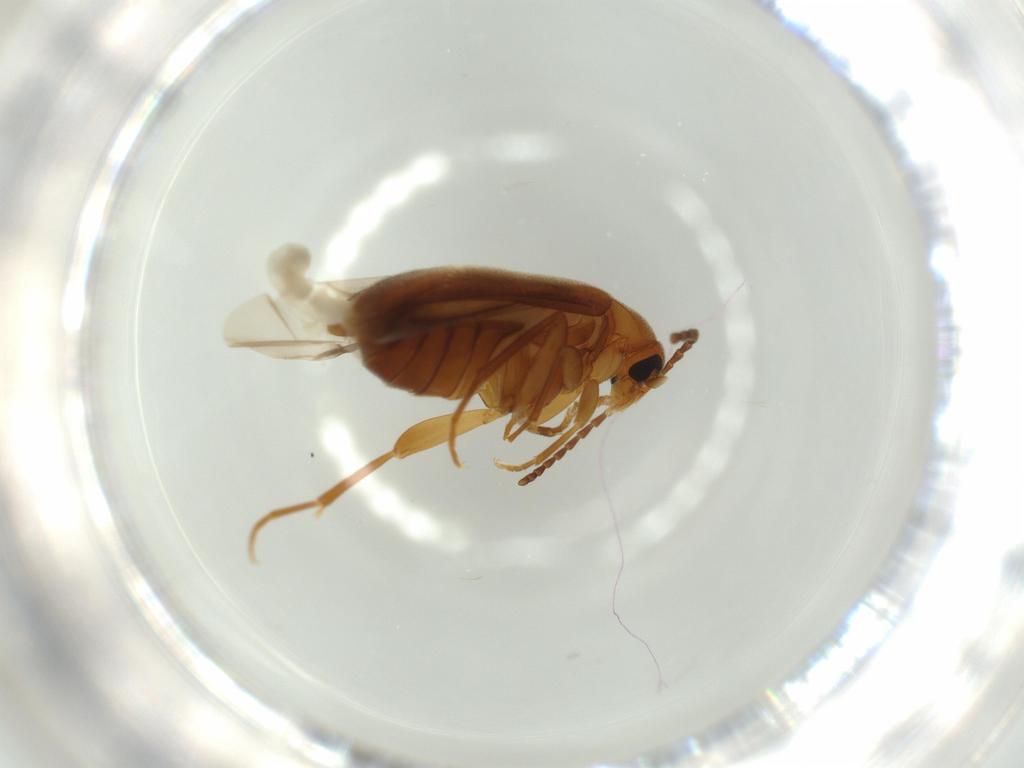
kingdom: Animalia
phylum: Arthropoda
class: Insecta
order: Coleoptera
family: Scraptiidae
